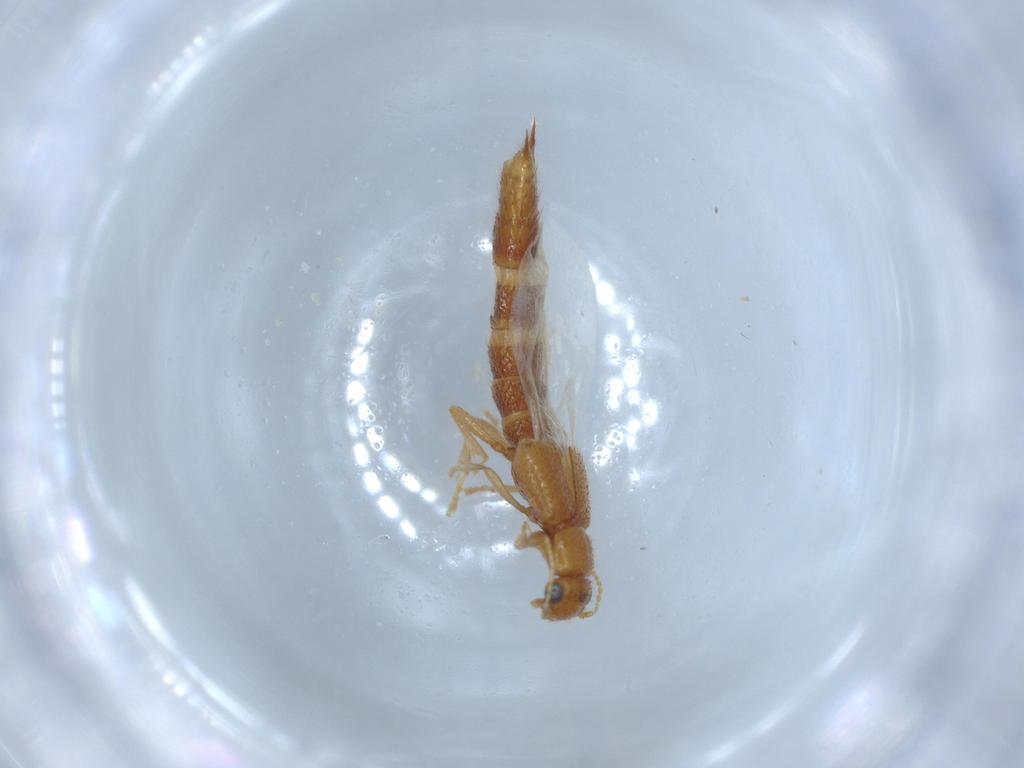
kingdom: Animalia
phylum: Arthropoda
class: Insecta
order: Coleoptera
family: Staphylinidae
